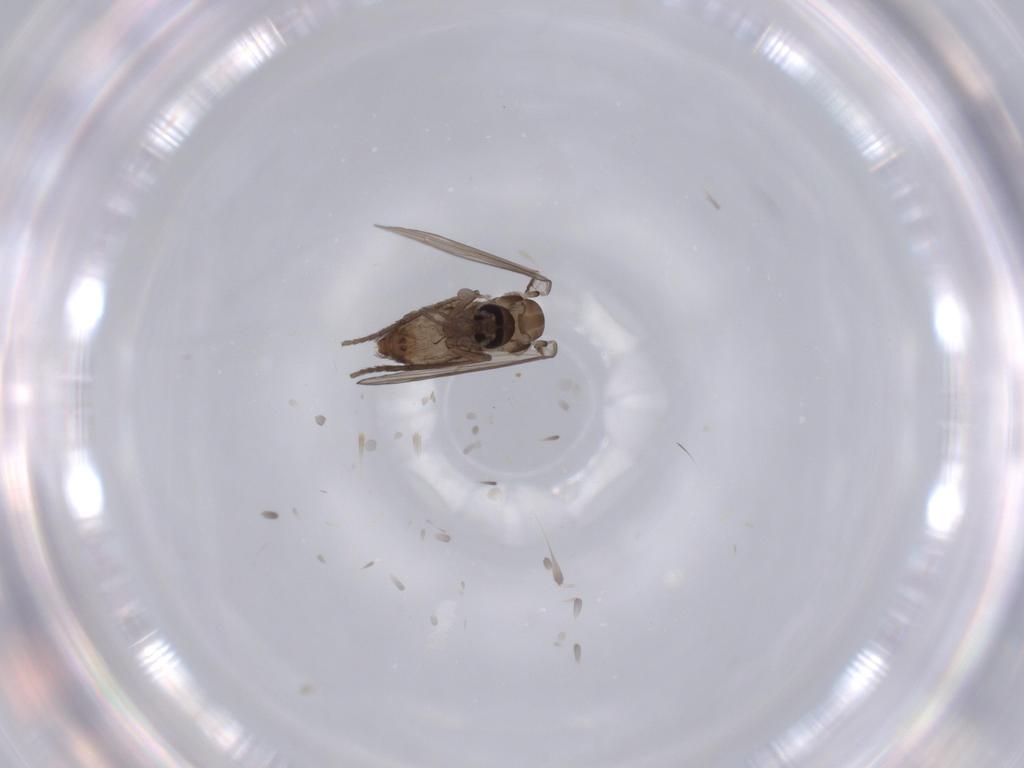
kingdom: Animalia
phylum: Arthropoda
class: Insecta
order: Diptera
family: Psychodidae
